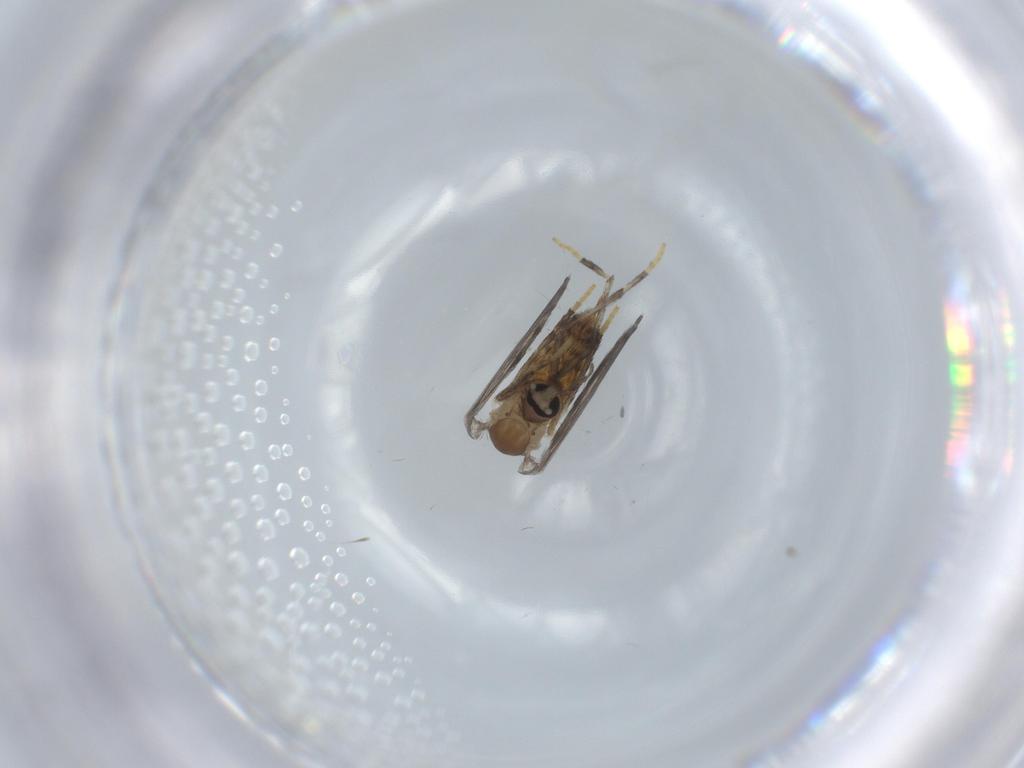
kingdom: Animalia
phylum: Arthropoda
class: Insecta
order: Diptera
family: Psychodidae
